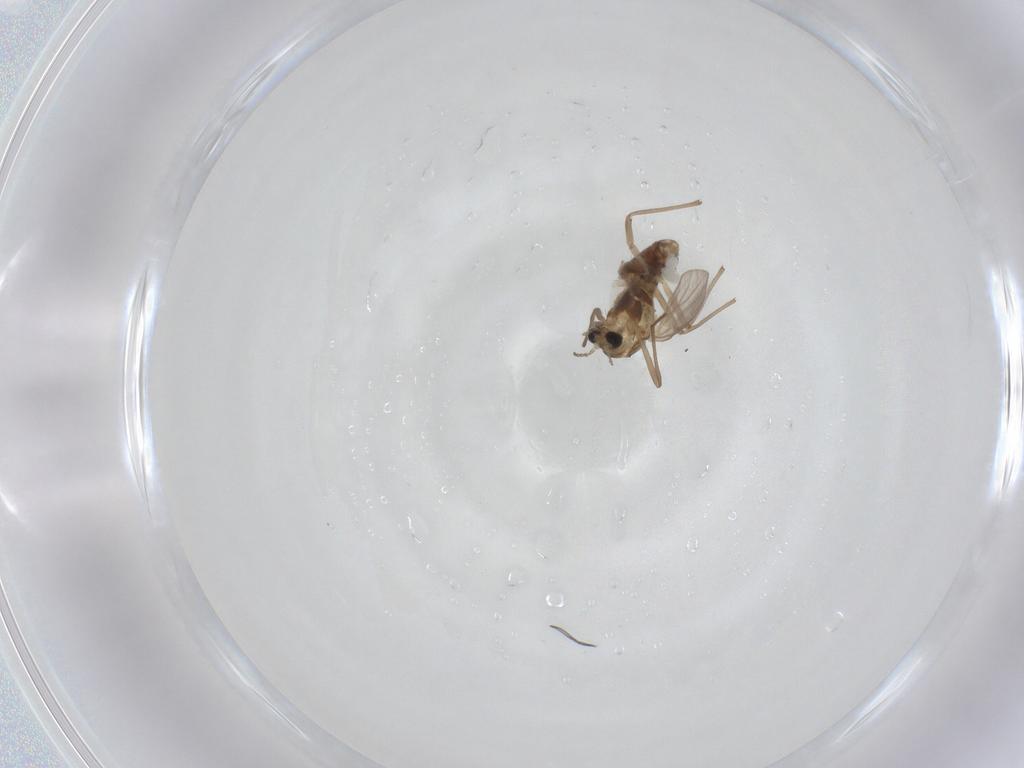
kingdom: Animalia
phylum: Arthropoda
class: Insecta
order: Diptera
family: Chironomidae
